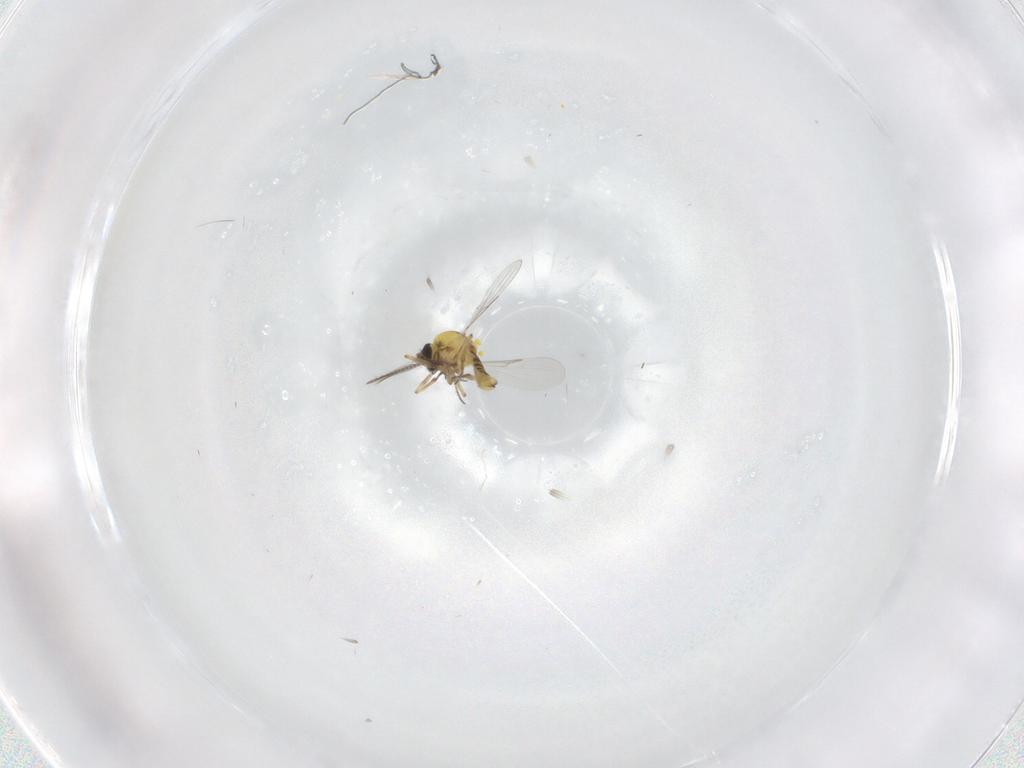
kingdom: Animalia
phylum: Arthropoda
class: Insecta
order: Diptera
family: Ceratopogonidae
